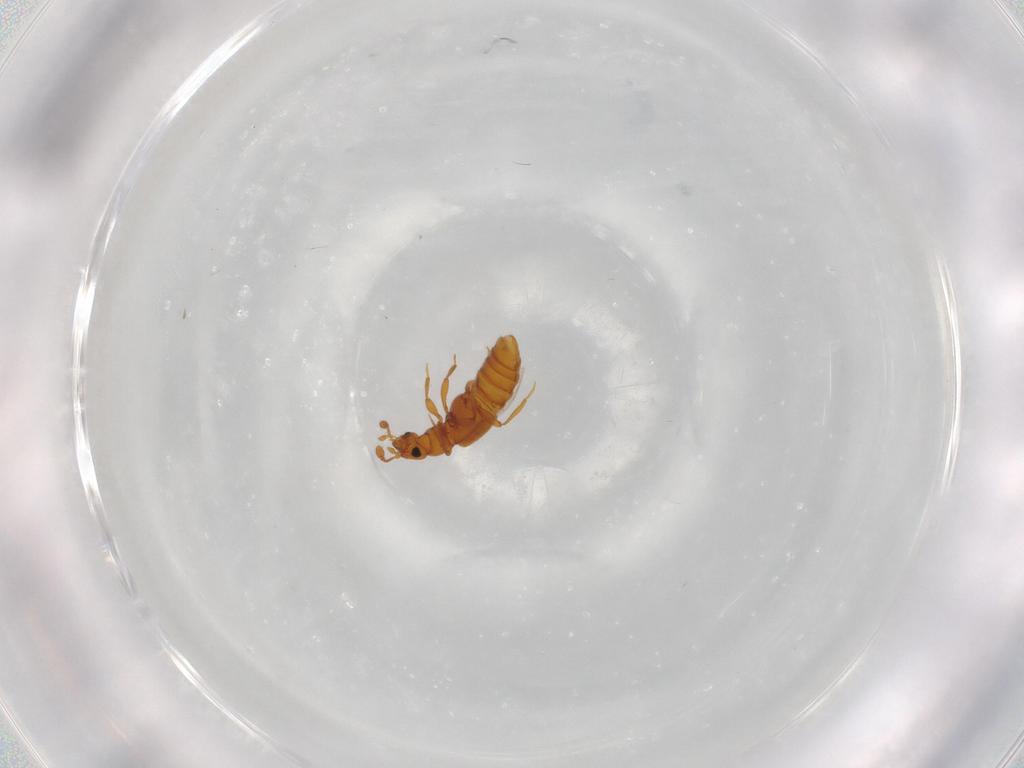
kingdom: Animalia
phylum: Arthropoda
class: Insecta
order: Coleoptera
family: Staphylinidae
